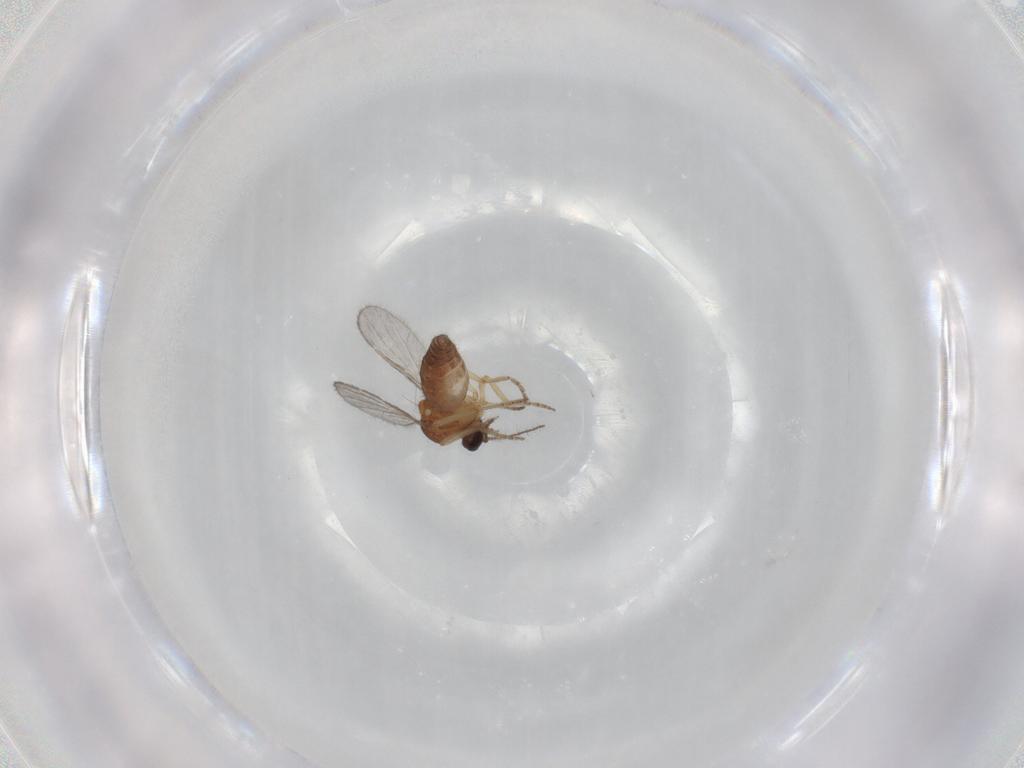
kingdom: Animalia
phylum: Arthropoda
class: Insecta
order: Diptera
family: Ceratopogonidae
